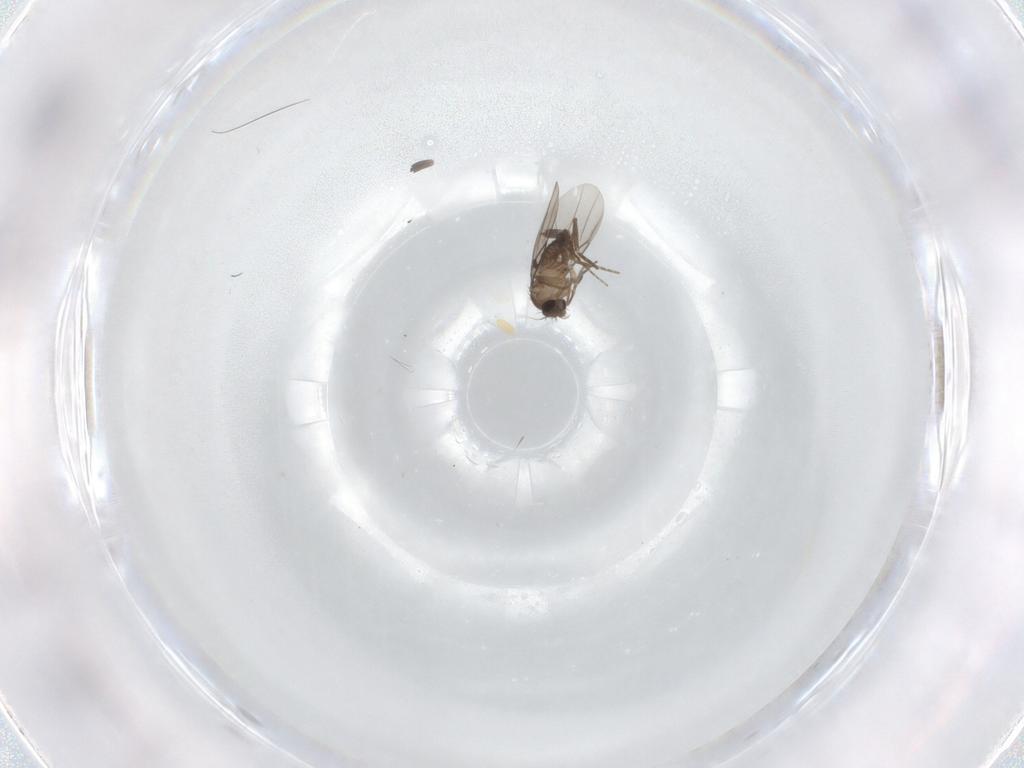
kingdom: Animalia
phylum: Arthropoda
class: Insecta
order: Diptera
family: Phoridae
